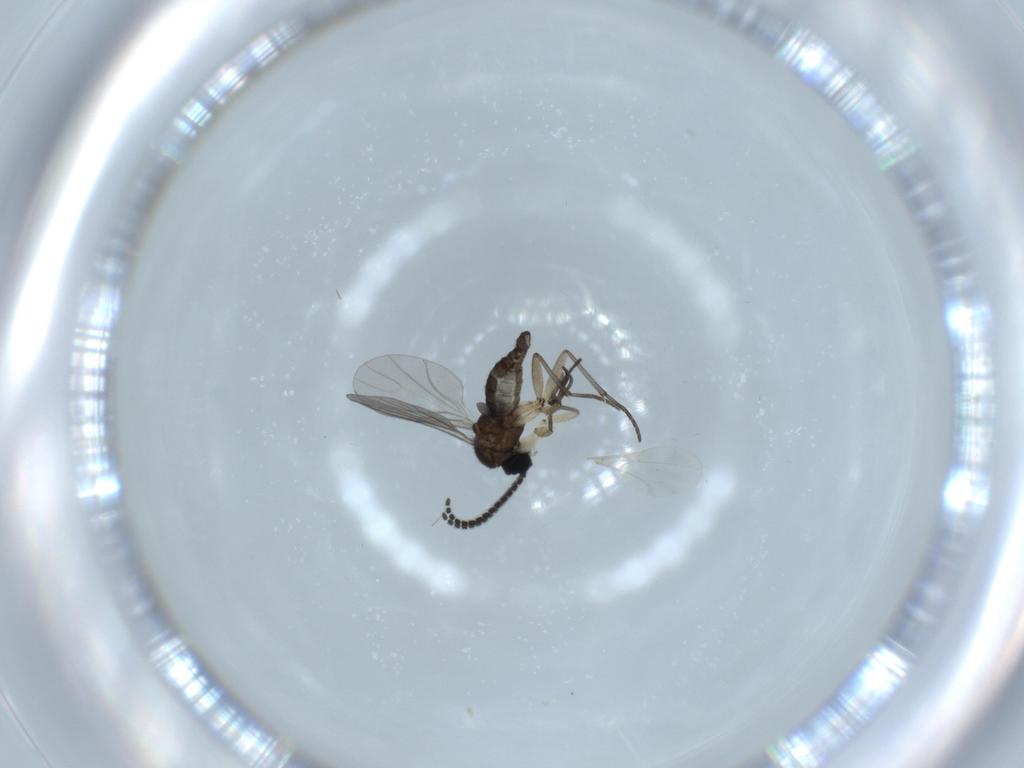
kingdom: Animalia
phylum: Arthropoda
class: Insecta
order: Diptera
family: Sciaridae
